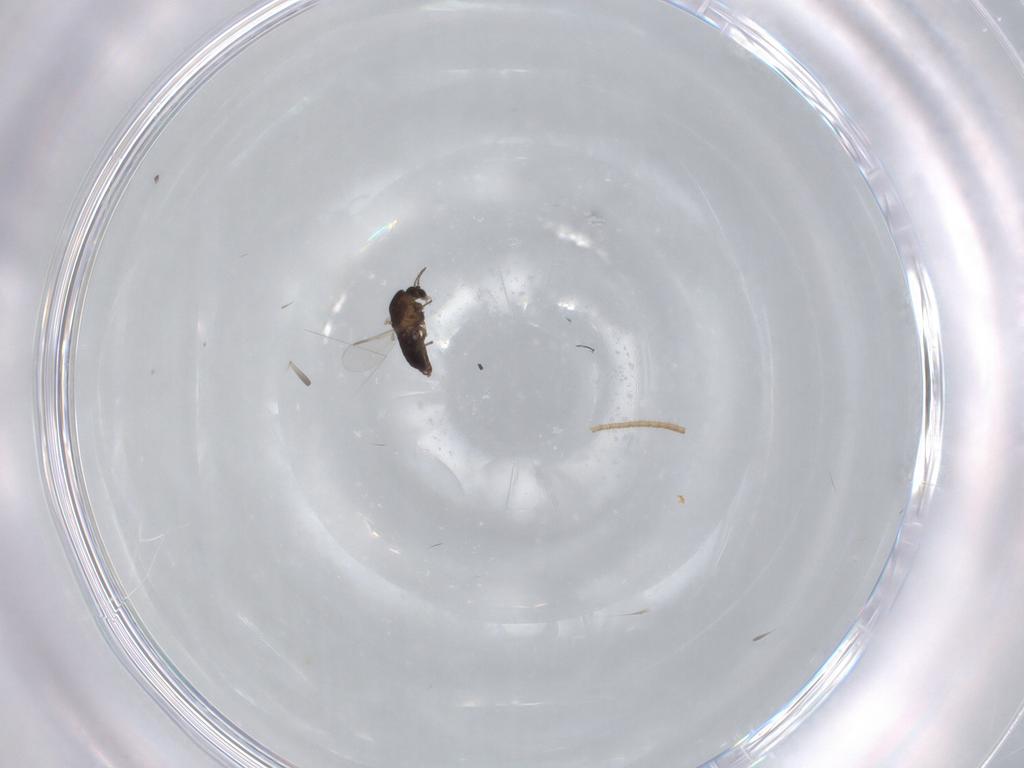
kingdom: Animalia
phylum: Arthropoda
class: Insecta
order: Diptera
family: Chironomidae
